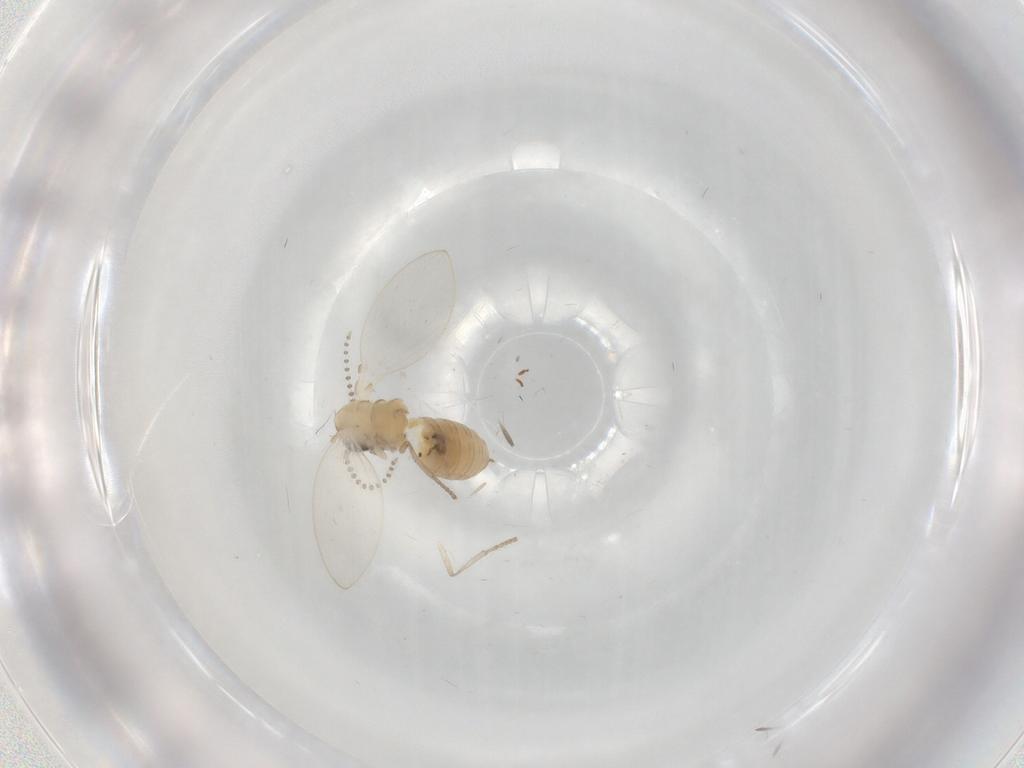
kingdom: Animalia
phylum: Arthropoda
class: Insecta
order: Diptera
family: Psychodidae
